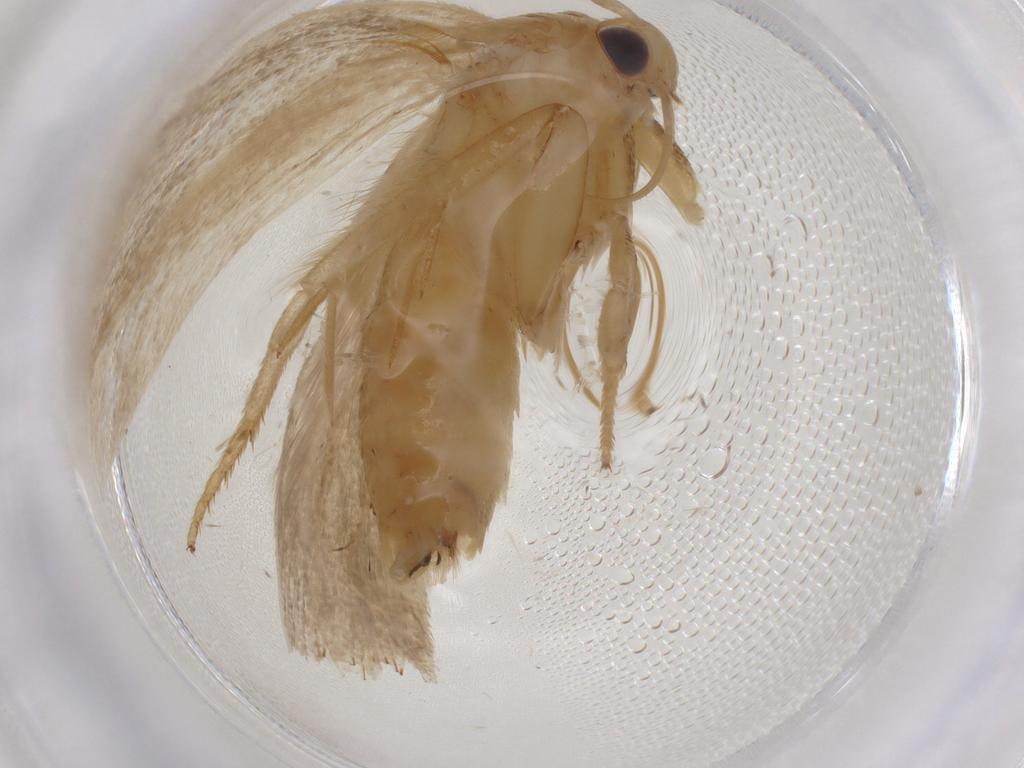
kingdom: Animalia
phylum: Arthropoda
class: Insecta
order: Lepidoptera
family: Depressariidae
